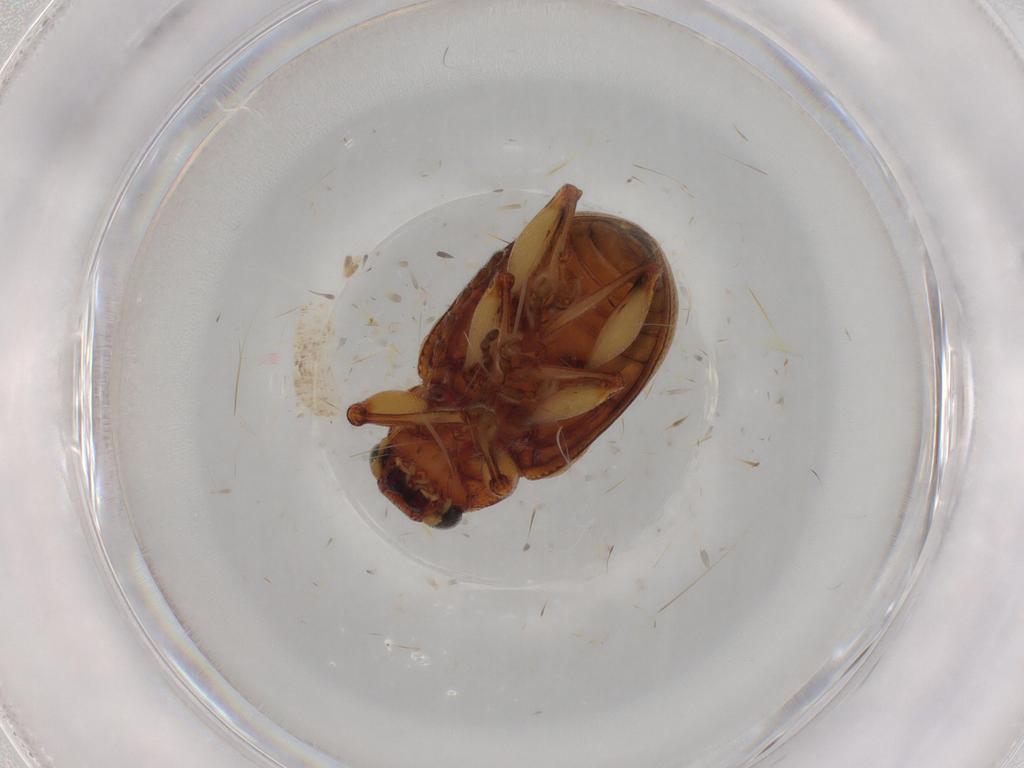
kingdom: Animalia
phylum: Arthropoda
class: Insecta
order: Coleoptera
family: Chrysomelidae
